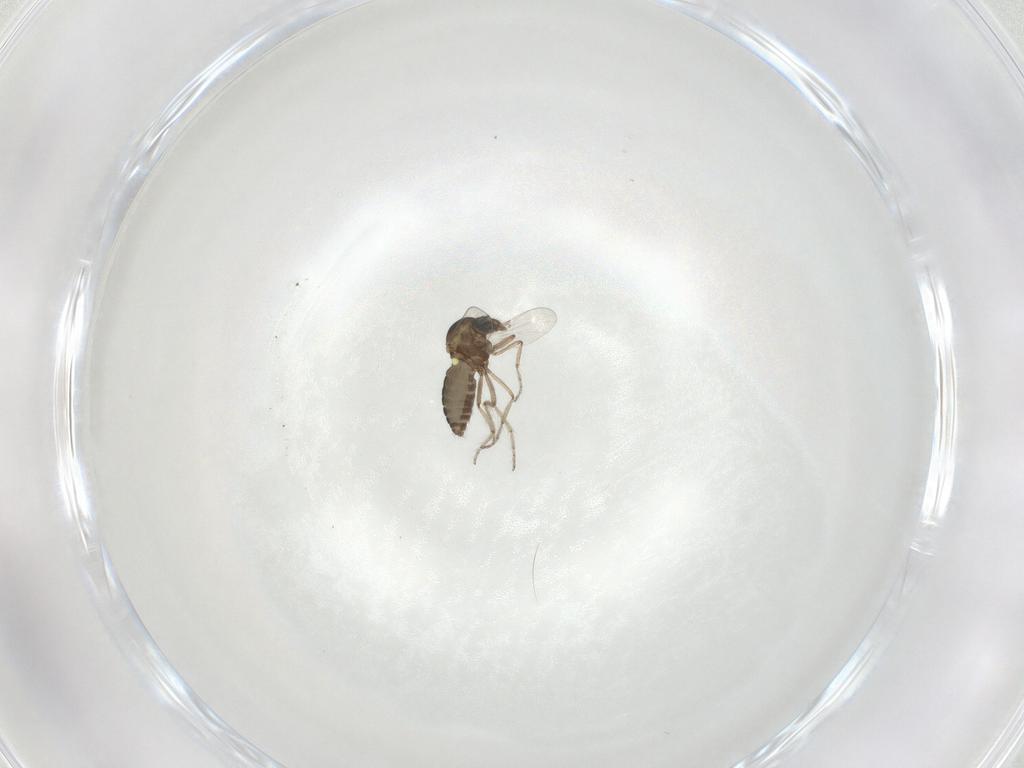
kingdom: Animalia
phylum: Arthropoda
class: Insecta
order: Diptera
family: Ceratopogonidae
